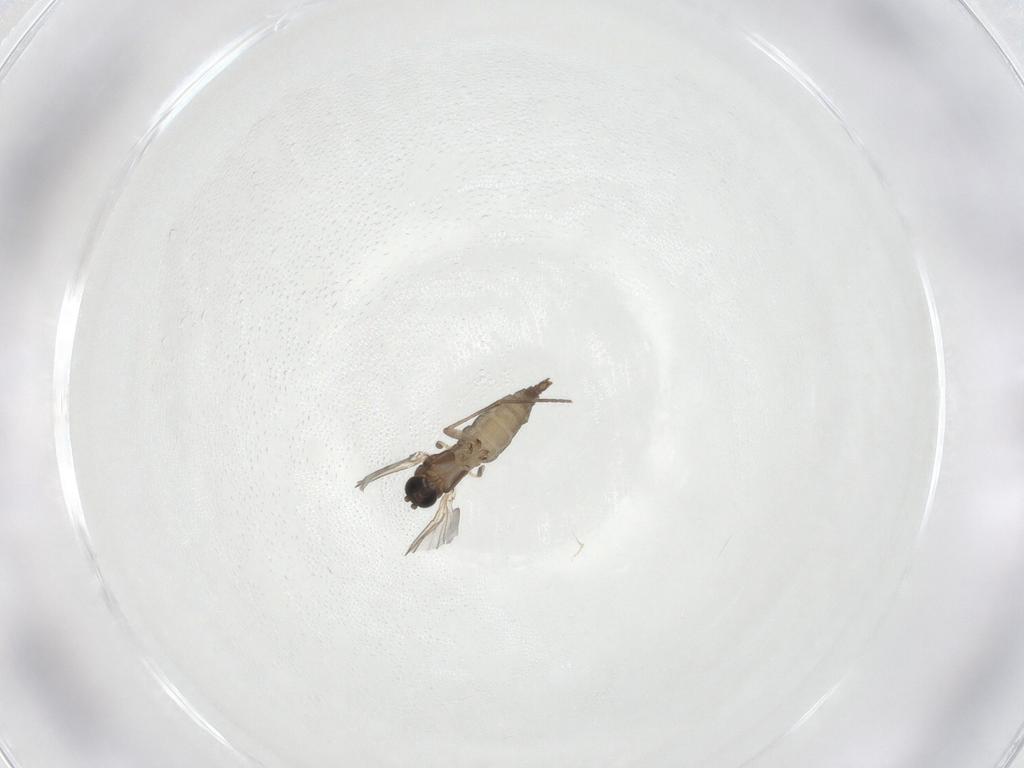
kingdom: Animalia
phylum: Arthropoda
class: Insecta
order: Diptera
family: Sciaridae
